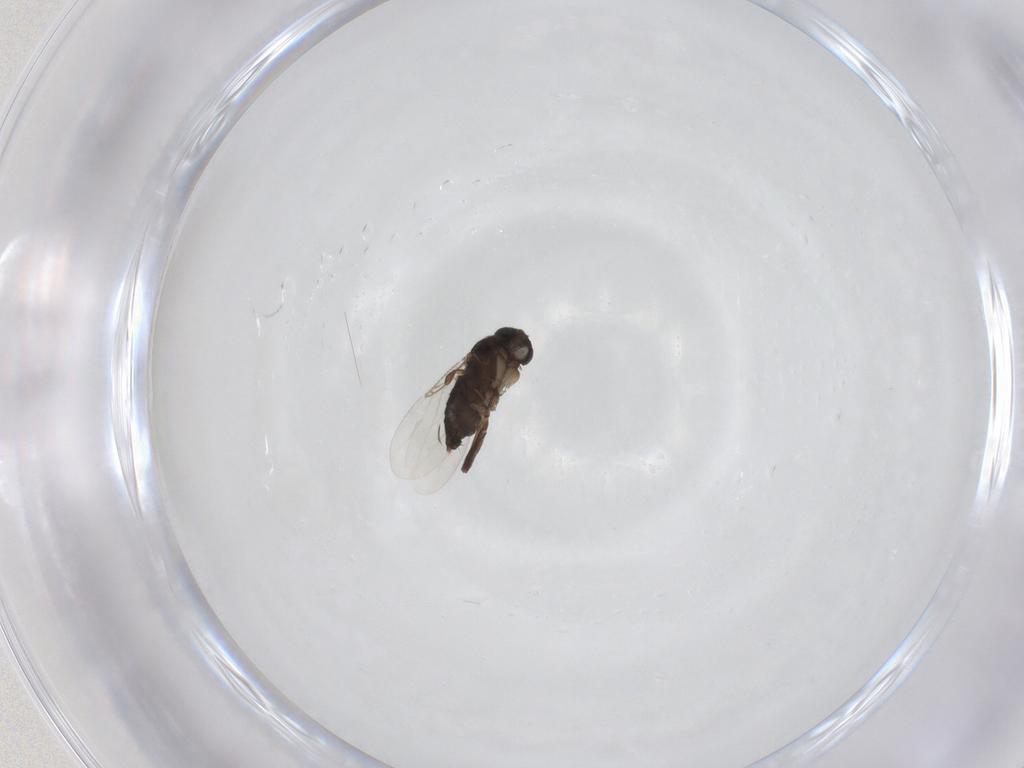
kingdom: Animalia
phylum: Arthropoda
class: Insecta
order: Diptera
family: Phoridae
